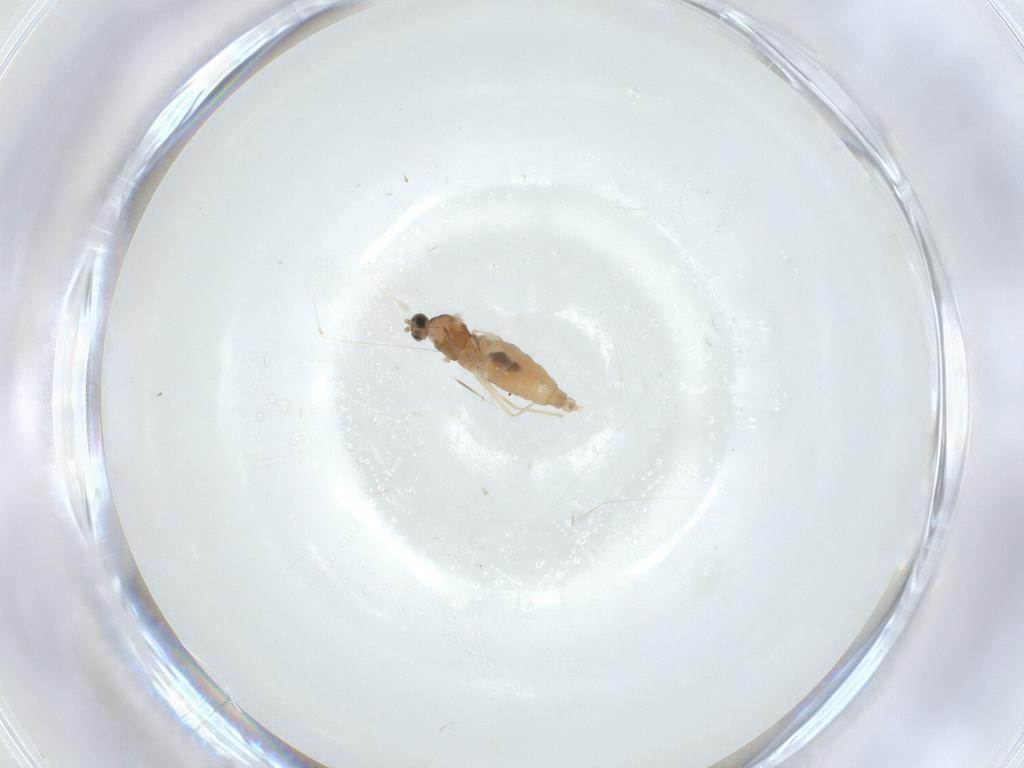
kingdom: Animalia
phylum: Arthropoda
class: Insecta
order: Diptera
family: Cecidomyiidae
